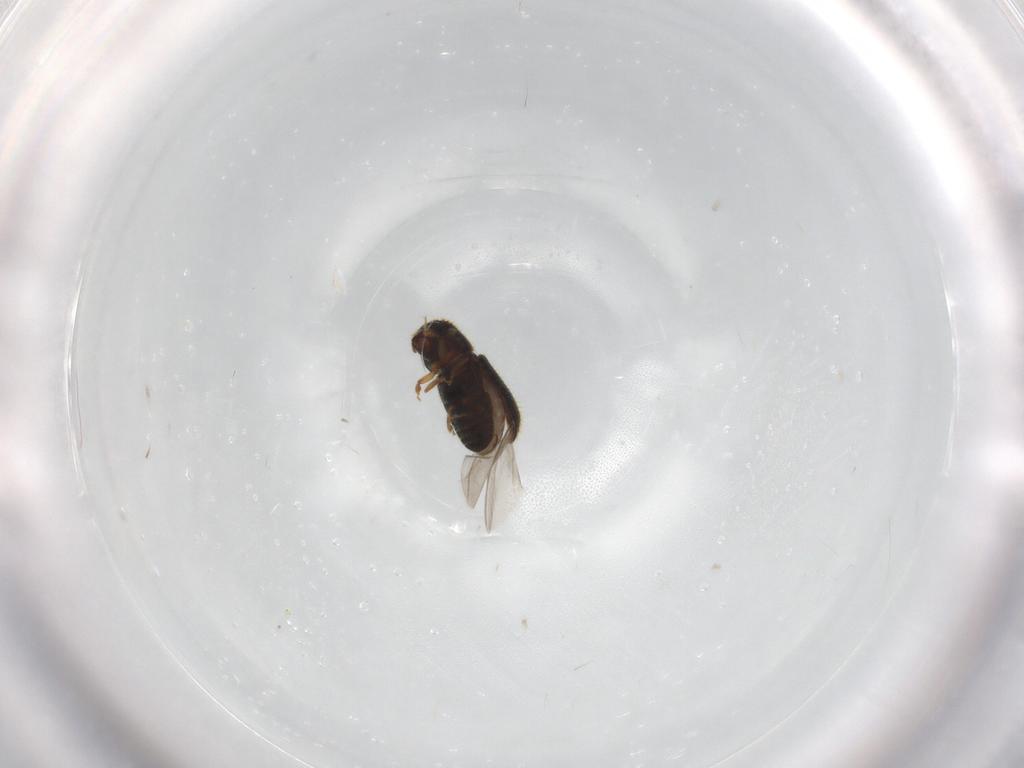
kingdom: Animalia
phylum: Arthropoda
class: Insecta
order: Coleoptera
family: Curculionidae
